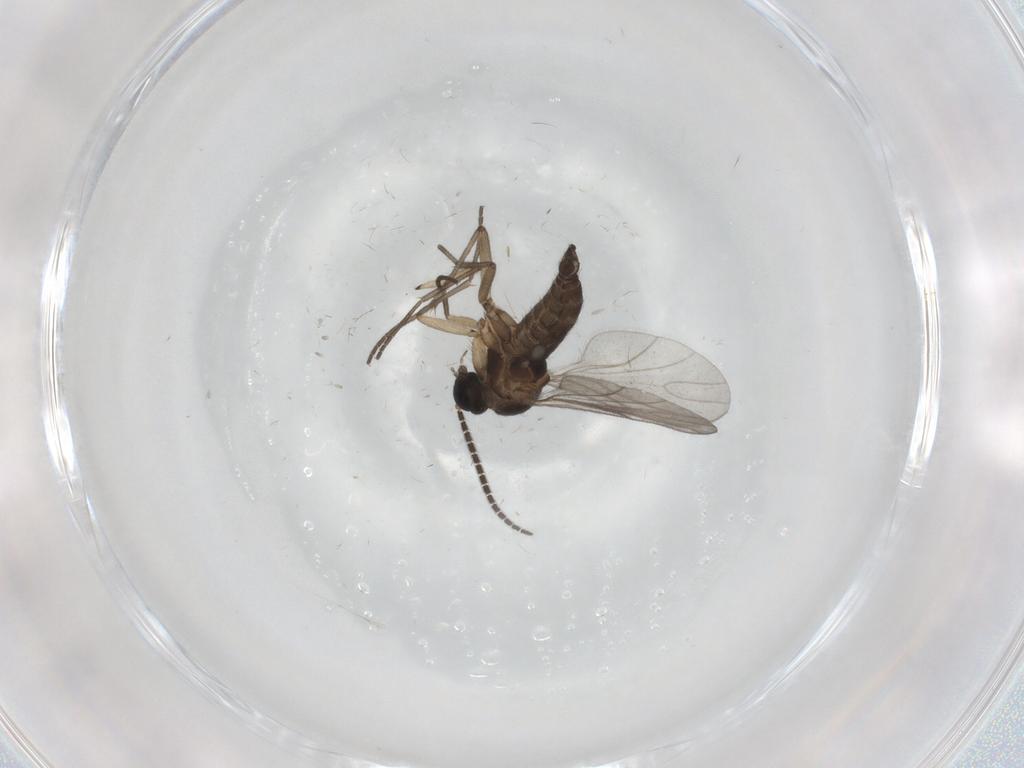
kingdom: Animalia
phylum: Arthropoda
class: Insecta
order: Diptera
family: Sciaridae
